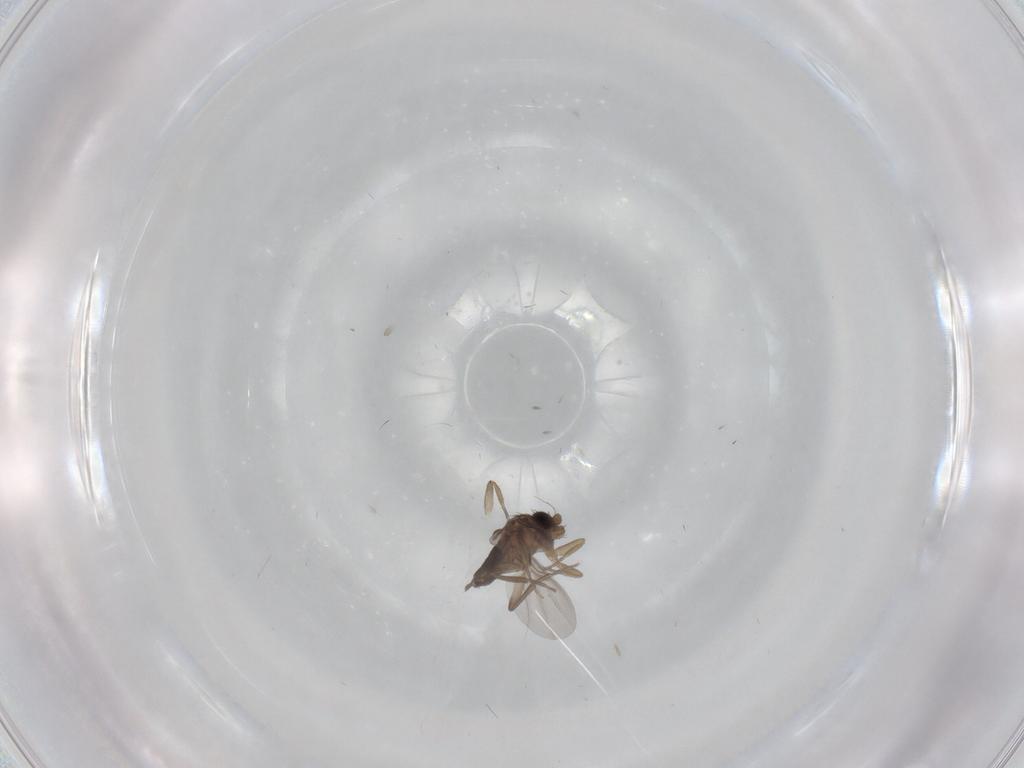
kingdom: Animalia
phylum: Arthropoda
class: Insecta
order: Diptera
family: Phoridae
